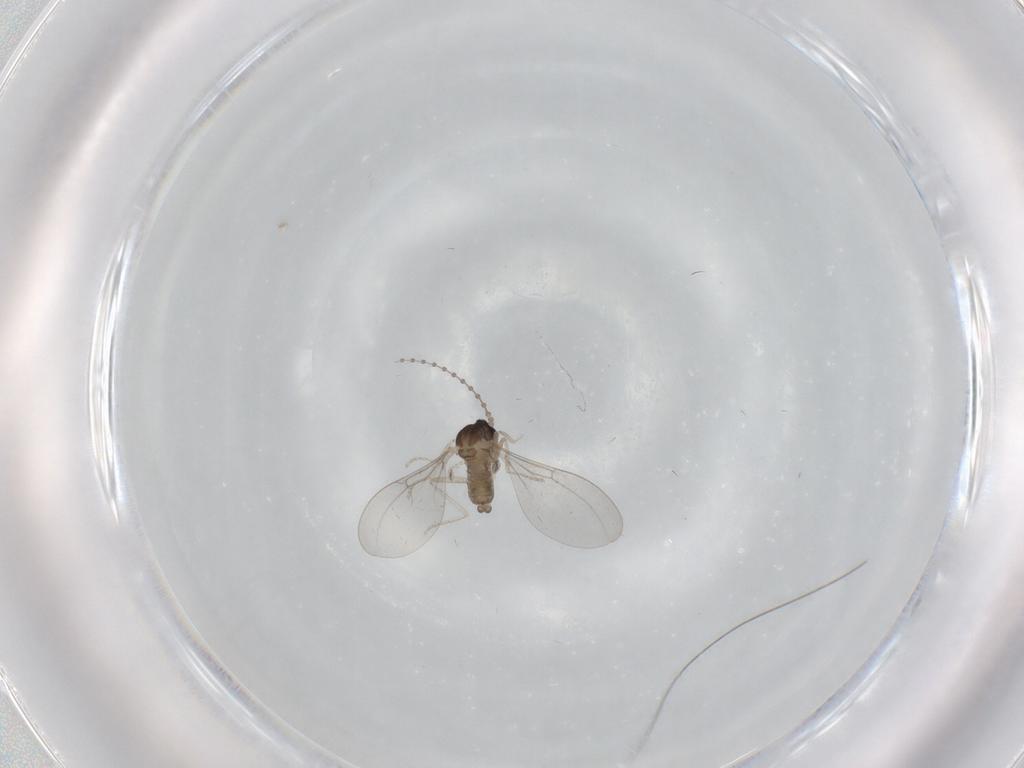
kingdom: Animalia
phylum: Arthropoda
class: Insecta
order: Diptera
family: Cecidomyiidae
